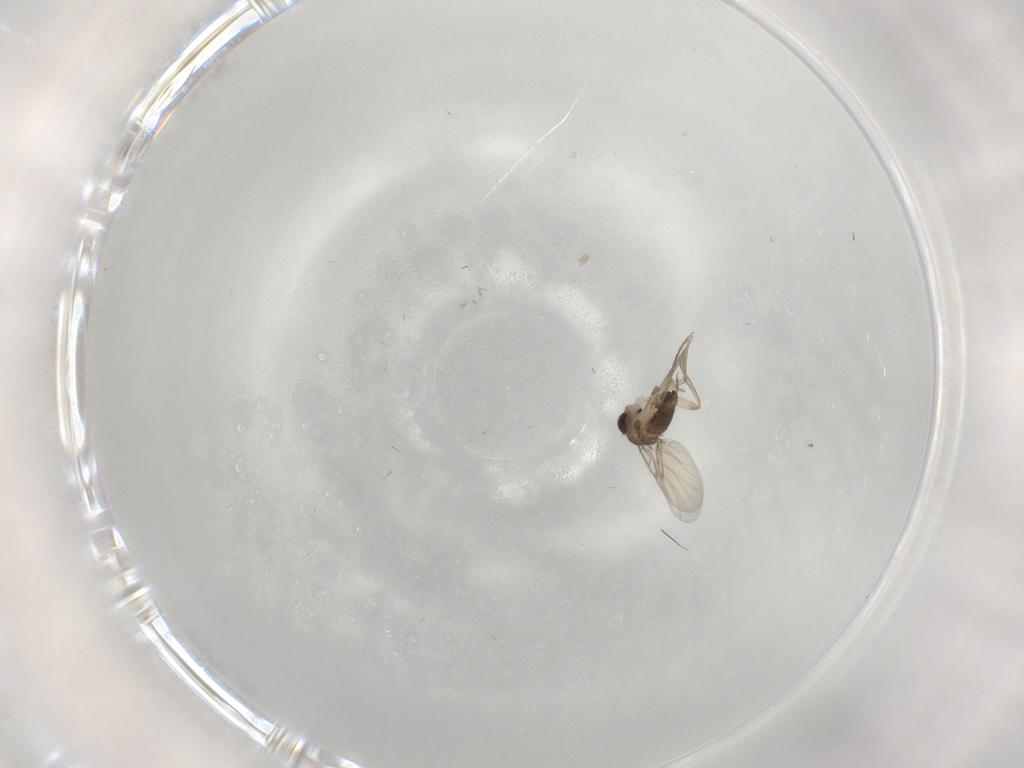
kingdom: Animalia
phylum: Arthropoda
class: Insecta
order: Diptera
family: Phoridae
